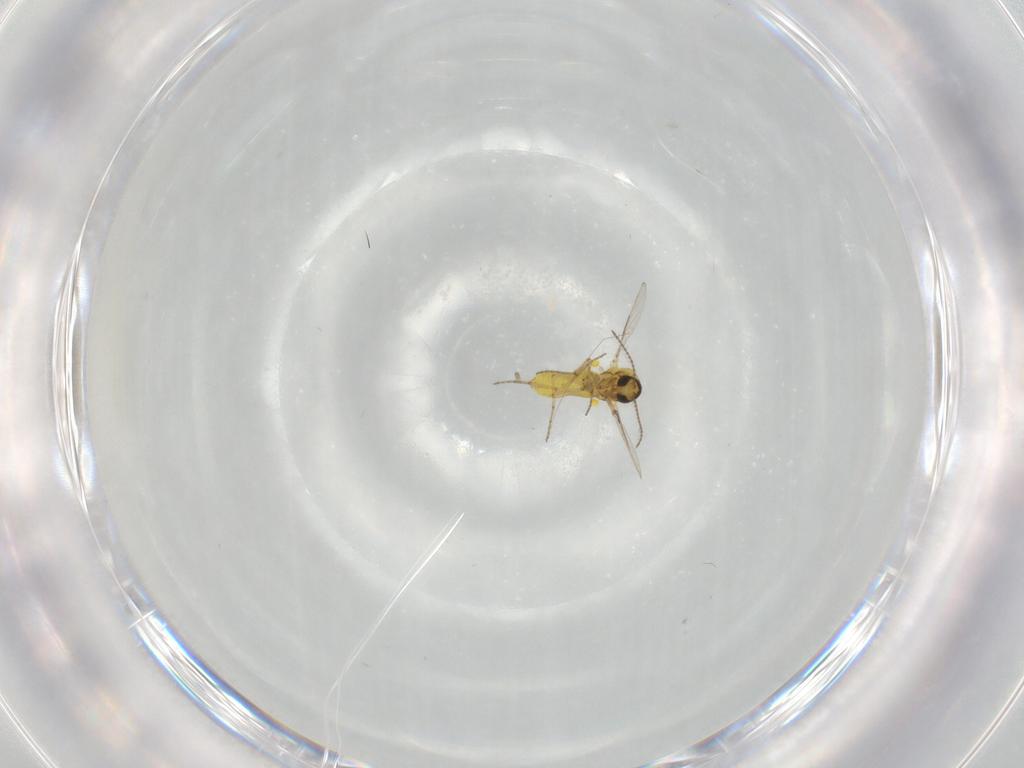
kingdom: Animalia
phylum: Arthropoda
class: Insecta
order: Diptera
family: Ceratopogonidae
